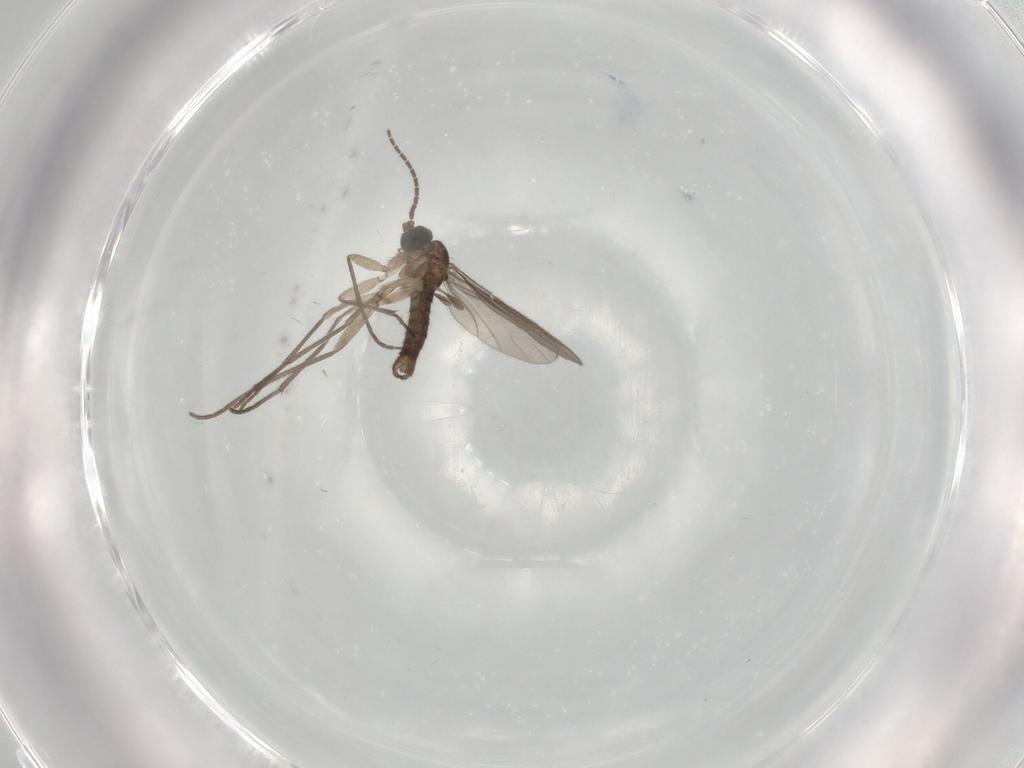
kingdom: Animalia
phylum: Arthropoda
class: Insecta
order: Diptera
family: Sciaridae
